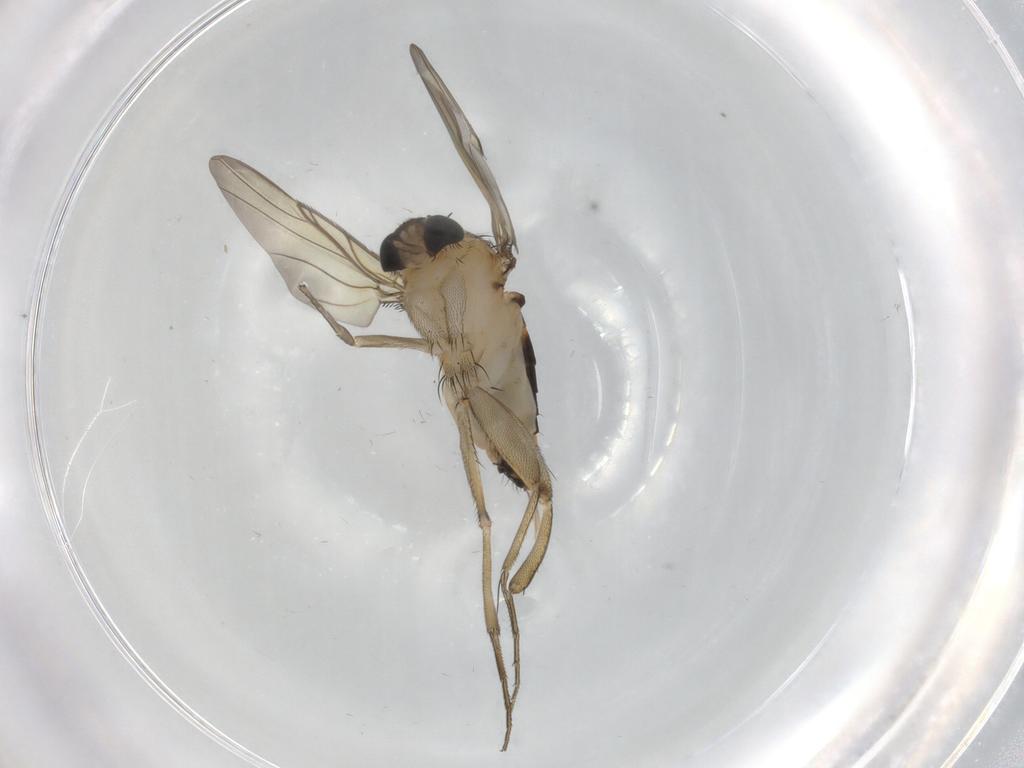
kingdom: Animalia
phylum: Arthropoda
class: Insecta
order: Diptera
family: Phoridae
